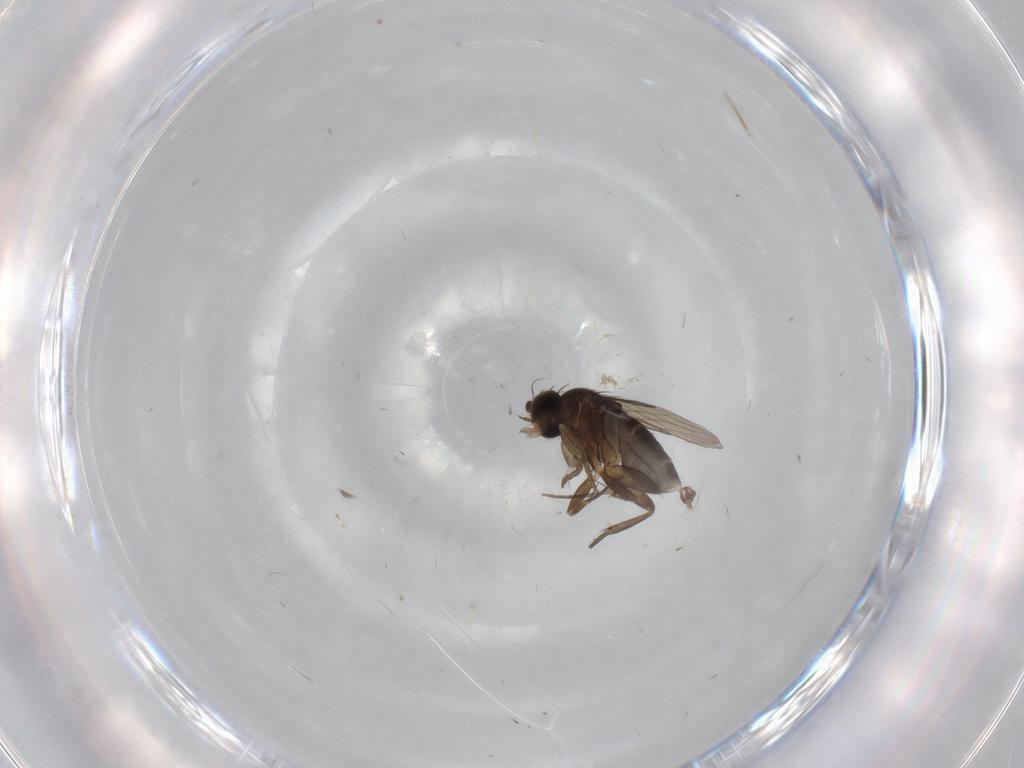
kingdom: Animalia
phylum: Arthropoda
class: Insecta
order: Diptera
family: Phoridae
